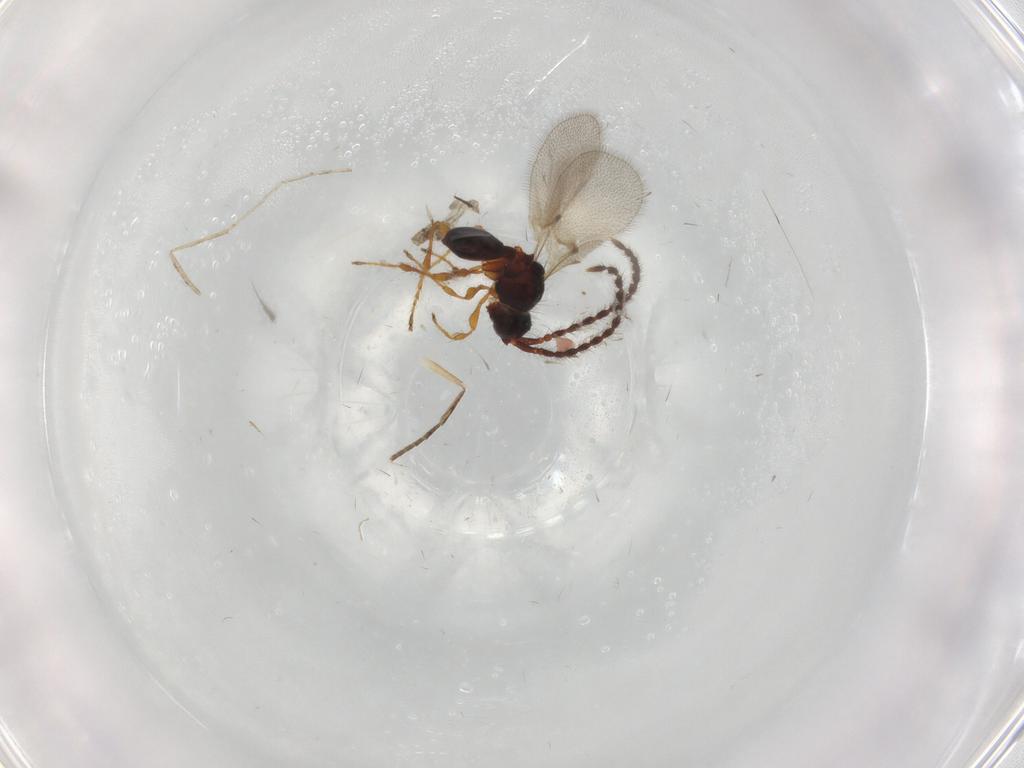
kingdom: Animalia
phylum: Arthropoda
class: Insecta
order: Hymenoptera
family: Diapriidae
